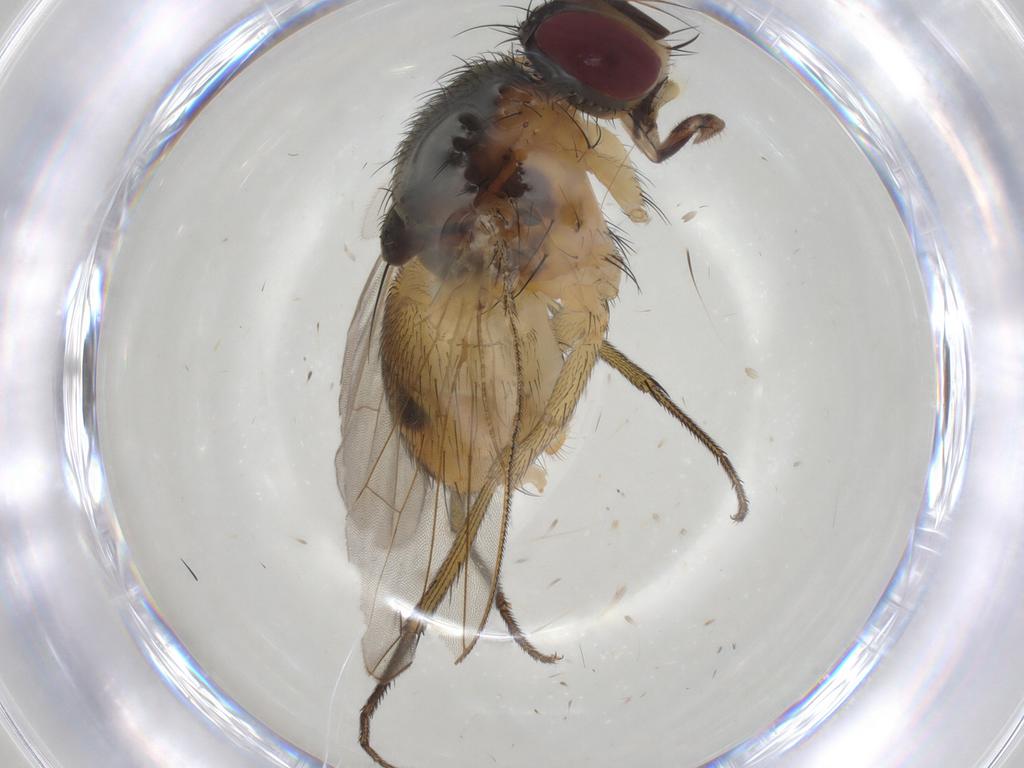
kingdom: Animalia
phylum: Arthropoda
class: Insecta
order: Diptera
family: Muscidae
